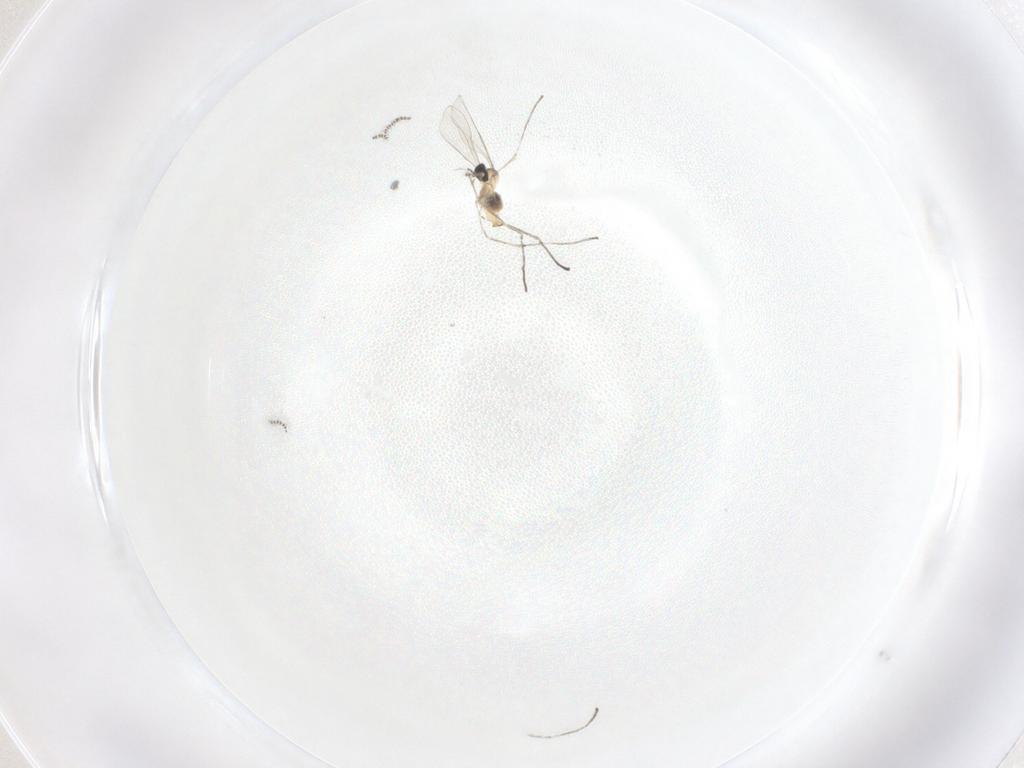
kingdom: Animalia
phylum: Arthropoda
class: Insecta
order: Diptera
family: Cecidomyiidae
